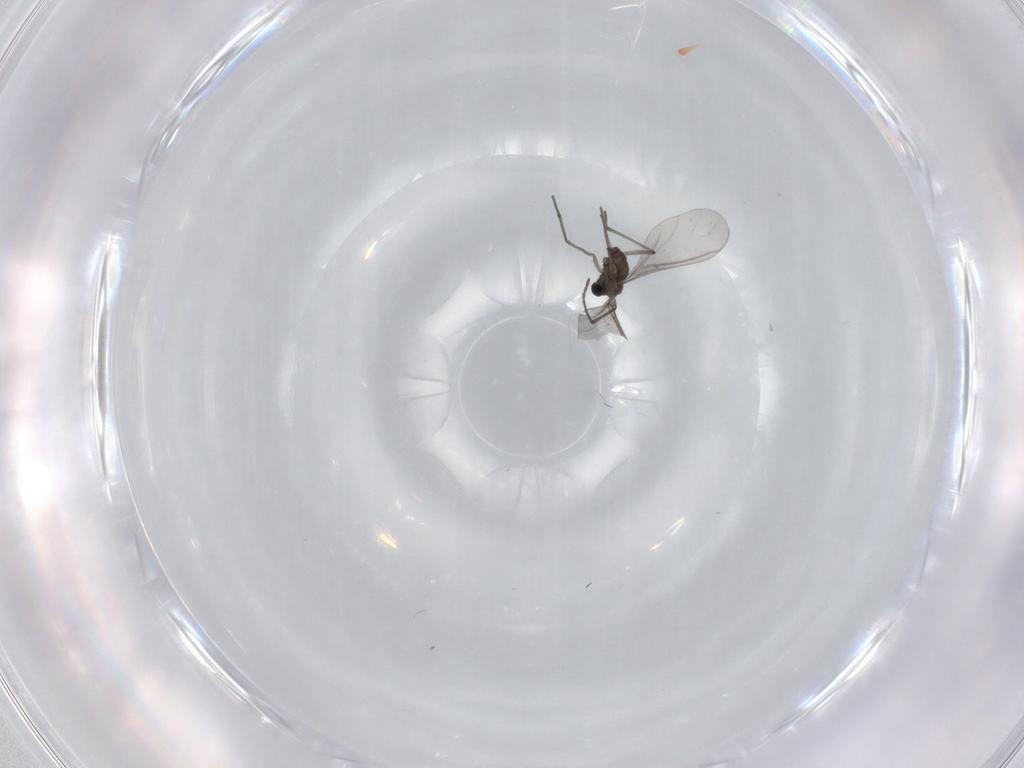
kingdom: Animalia
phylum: Arthropoda
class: Insecta
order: Diptera
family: Sciaridae
